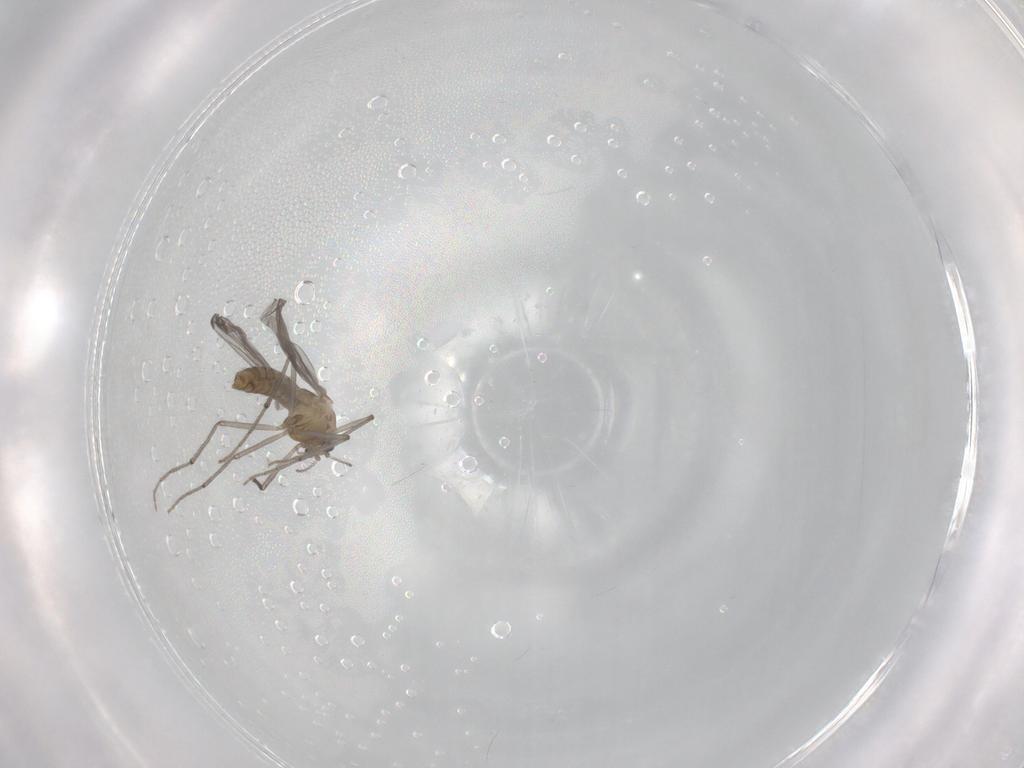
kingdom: Animalia
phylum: Arthropoda
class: Insecta
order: Diptera
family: Chironomidae
